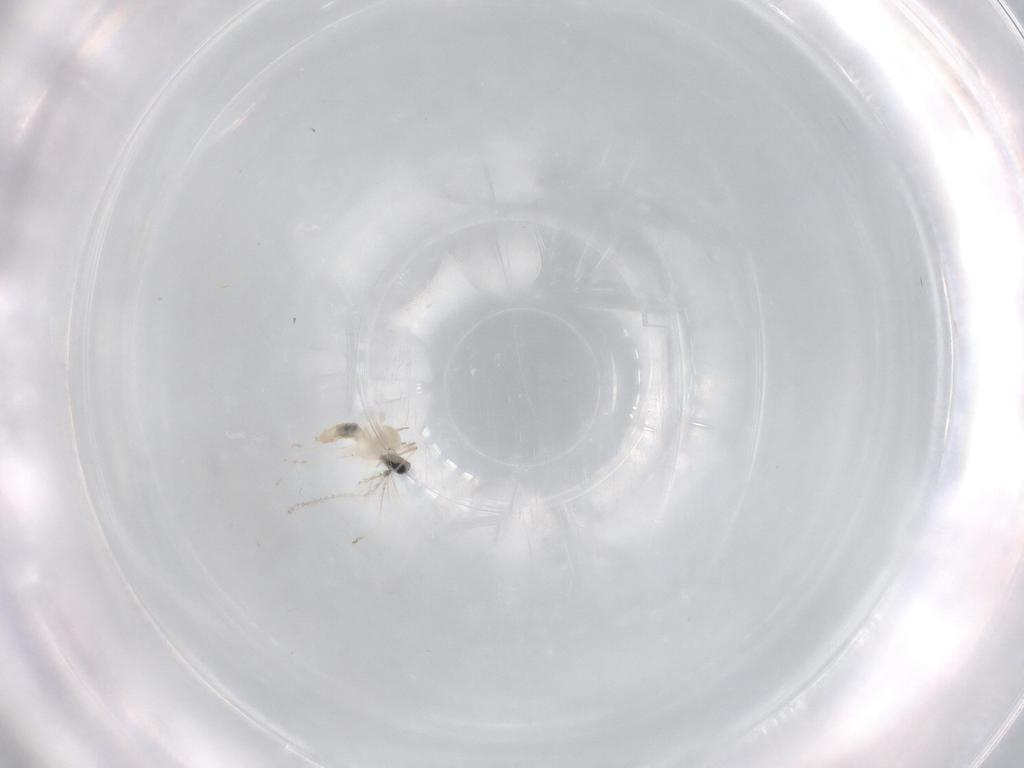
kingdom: Animalia
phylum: Arthropoda
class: Insecta
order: Diptera
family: Cecidomyiidae
